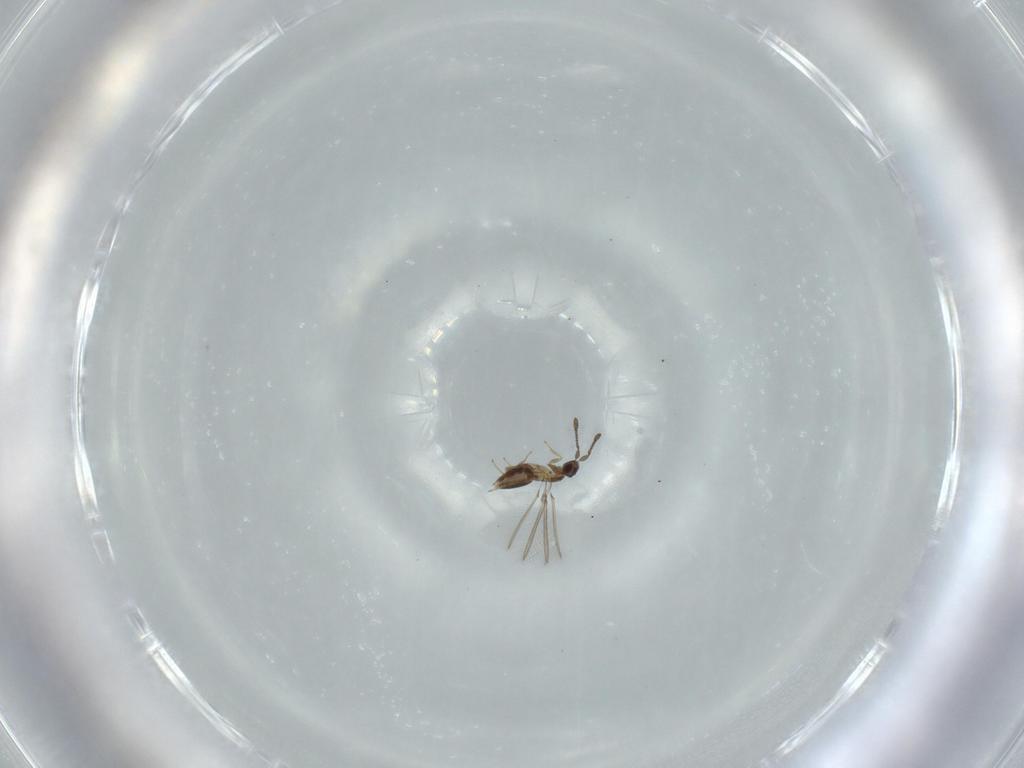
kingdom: Animalia
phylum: Arthropoda
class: Insecta
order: Hymenoptera
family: Mymaridae
